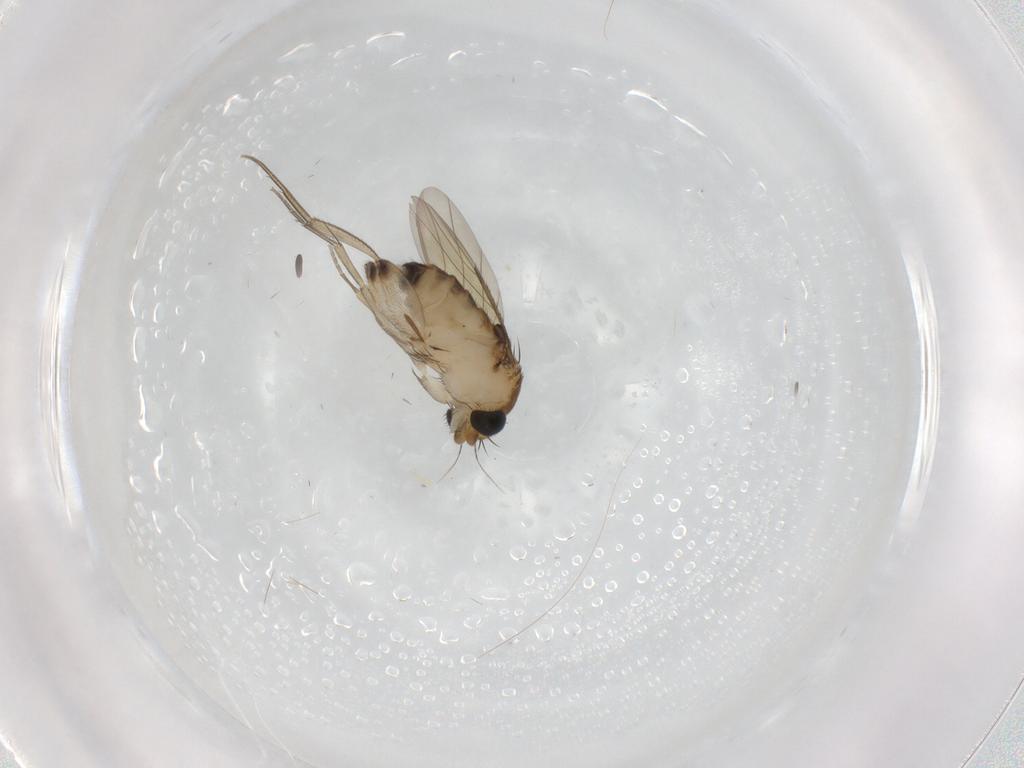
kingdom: Animalia
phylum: Arthropoda
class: Insecta
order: Diptera
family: Phoridae
